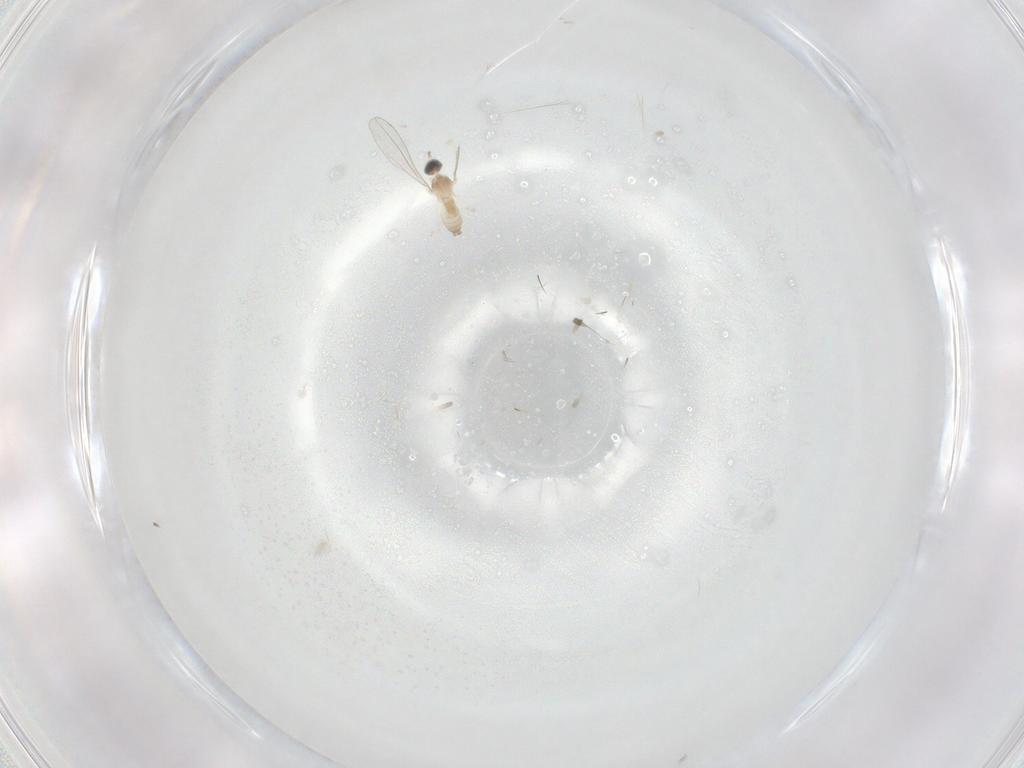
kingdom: Animalia
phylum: Arthropoda
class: Insecta
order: Diptera
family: Cecidomyiidae
